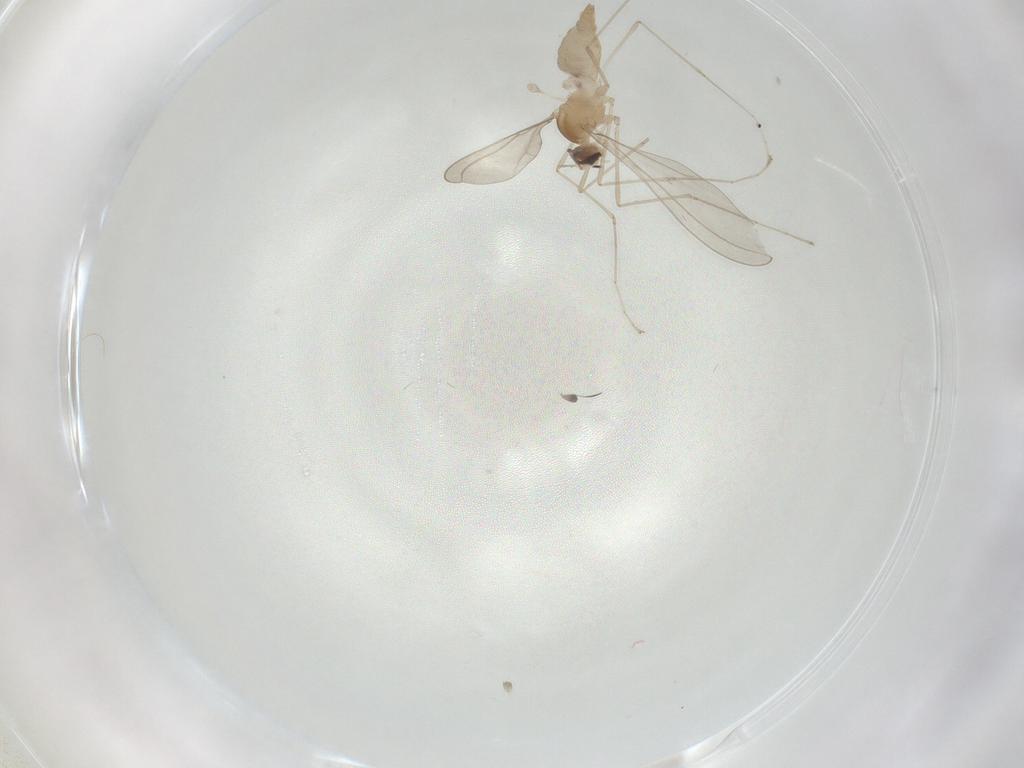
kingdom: Animalia
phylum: Arthropoda
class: Insecta
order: Diptera
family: Cecidomyiidae
